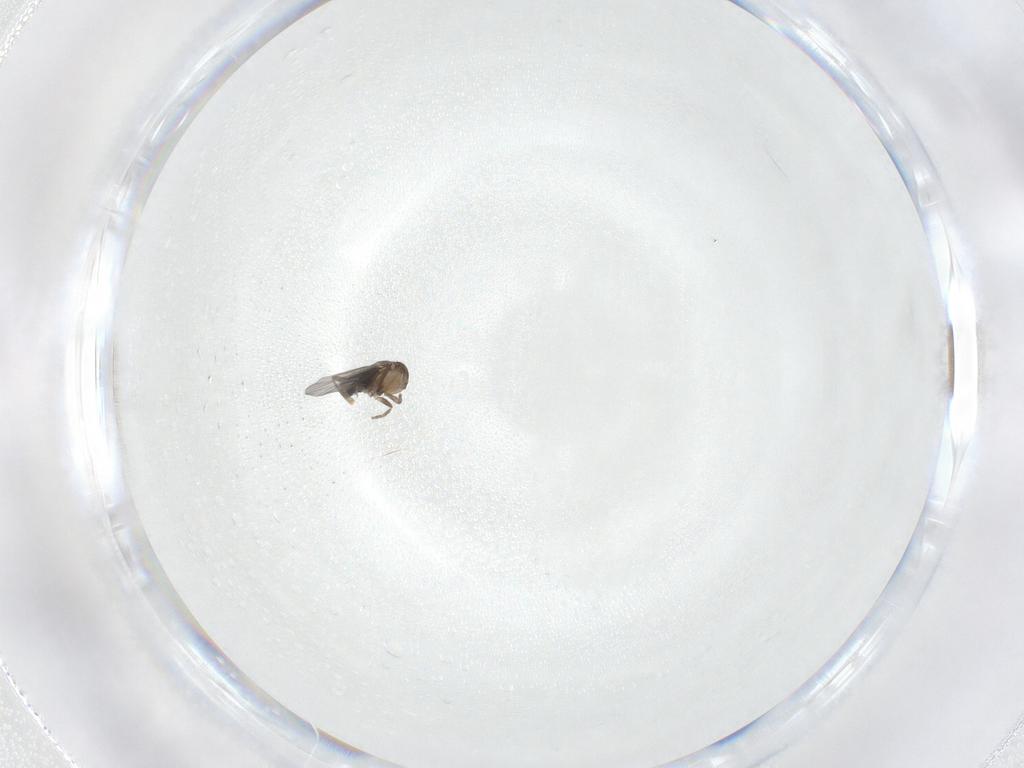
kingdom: Animalia
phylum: Arthropoda
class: Insecta
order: Diptera
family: Phoridae
